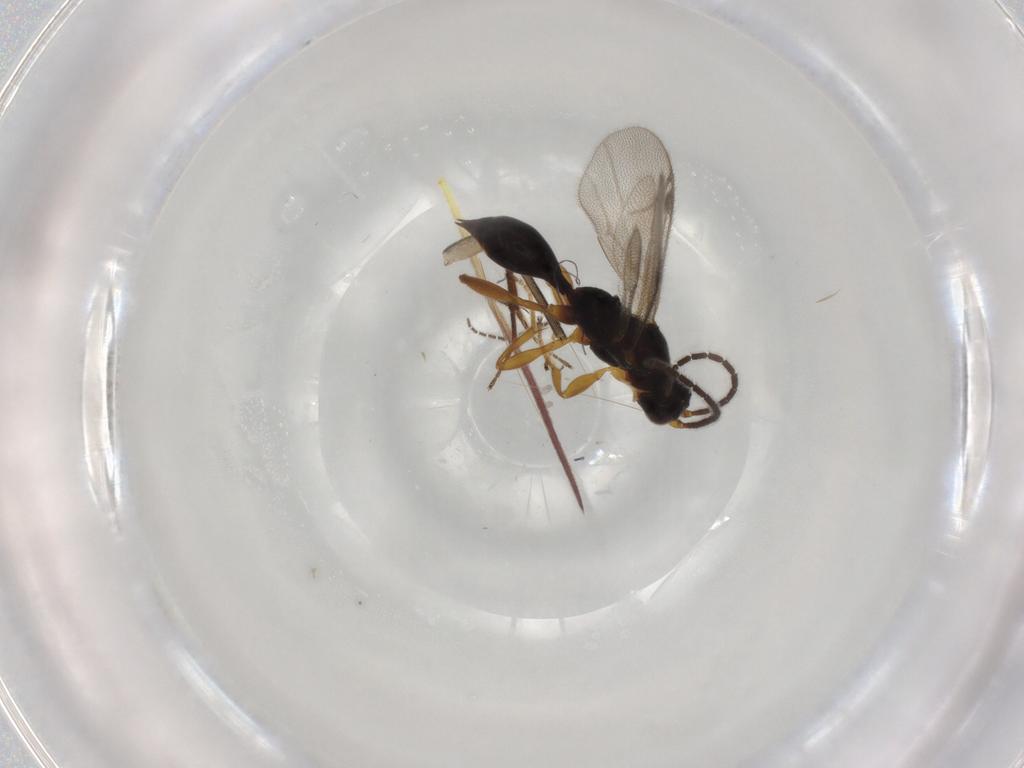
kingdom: Animalia
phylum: Arthropoda
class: Insecta
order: Hymenoptera
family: Proctotrupidae
